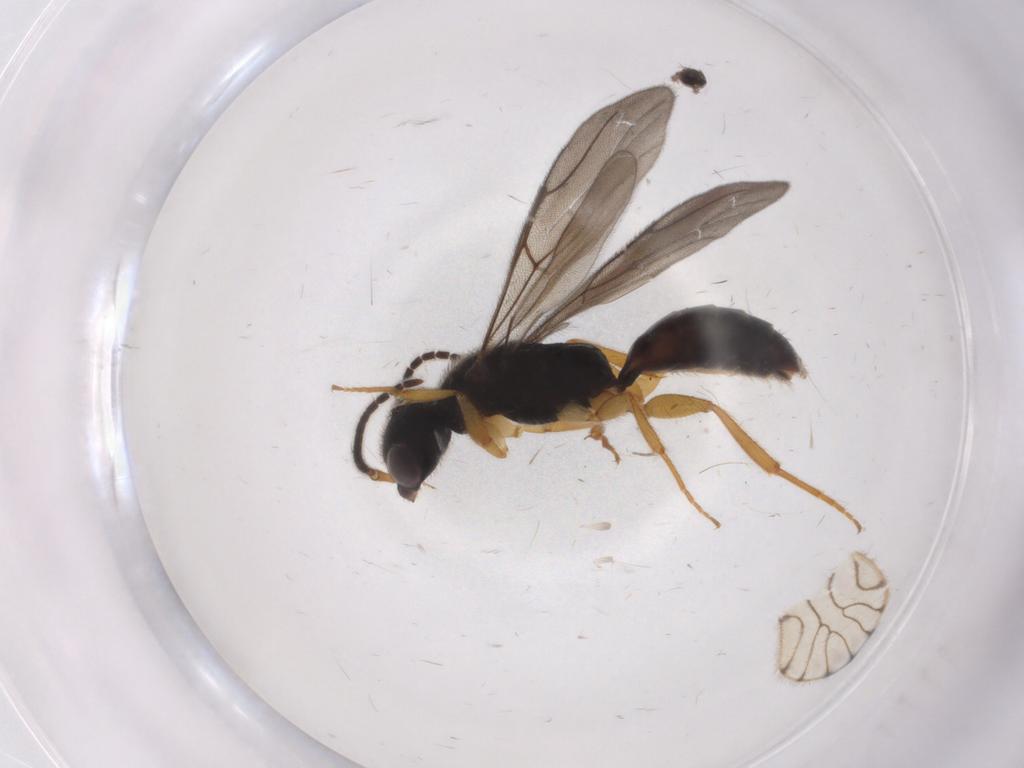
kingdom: Animalia
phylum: Arthropoda
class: Insecta
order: Hymenoptera
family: Bethylidae
